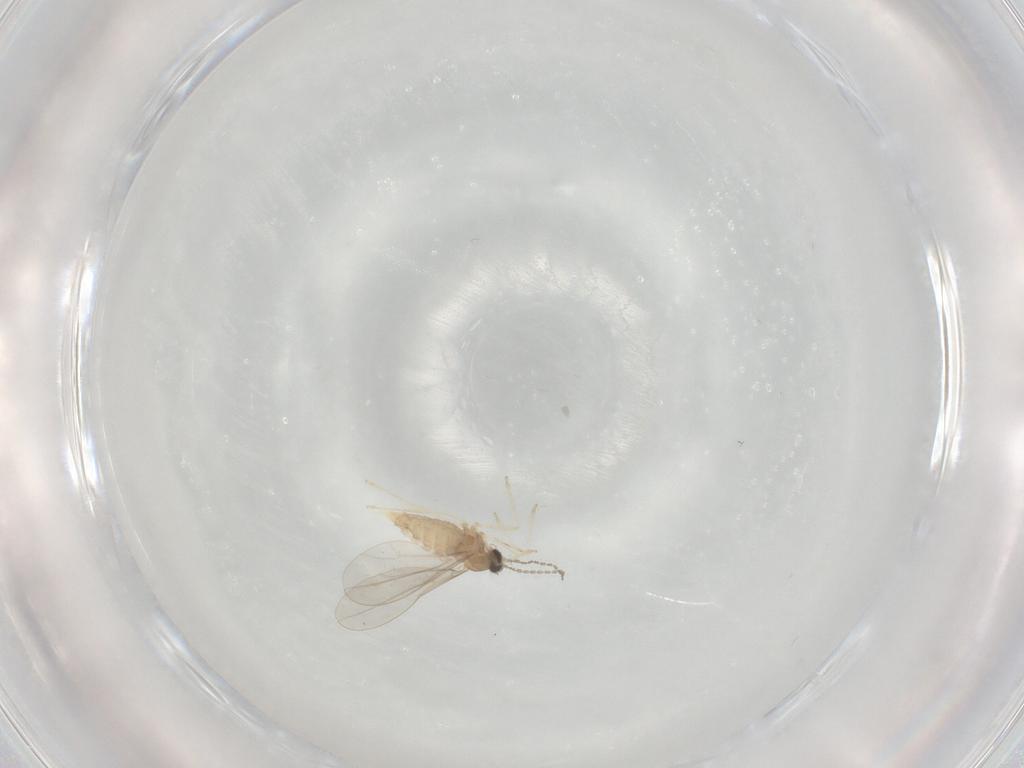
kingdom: Animalia
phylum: Arthropoda
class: Insecta
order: Diptera
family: Cecidomyiidae
